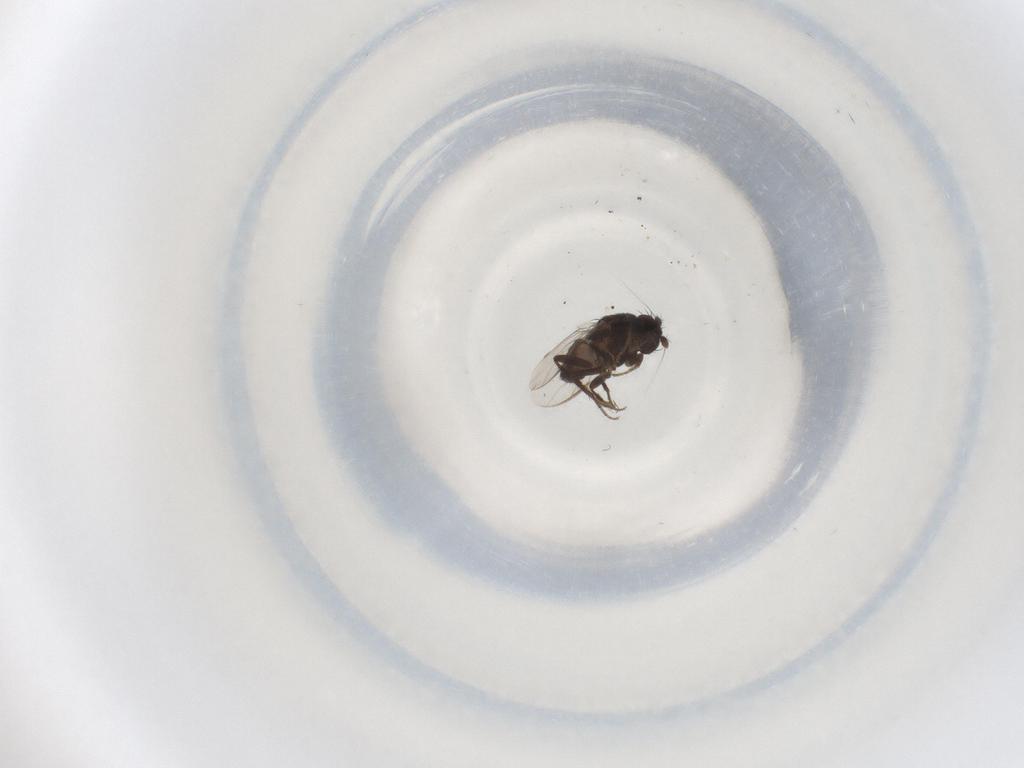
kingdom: Animalia
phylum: Arthropoda
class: Insecta
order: Diptera
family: Sphaeroceridae
